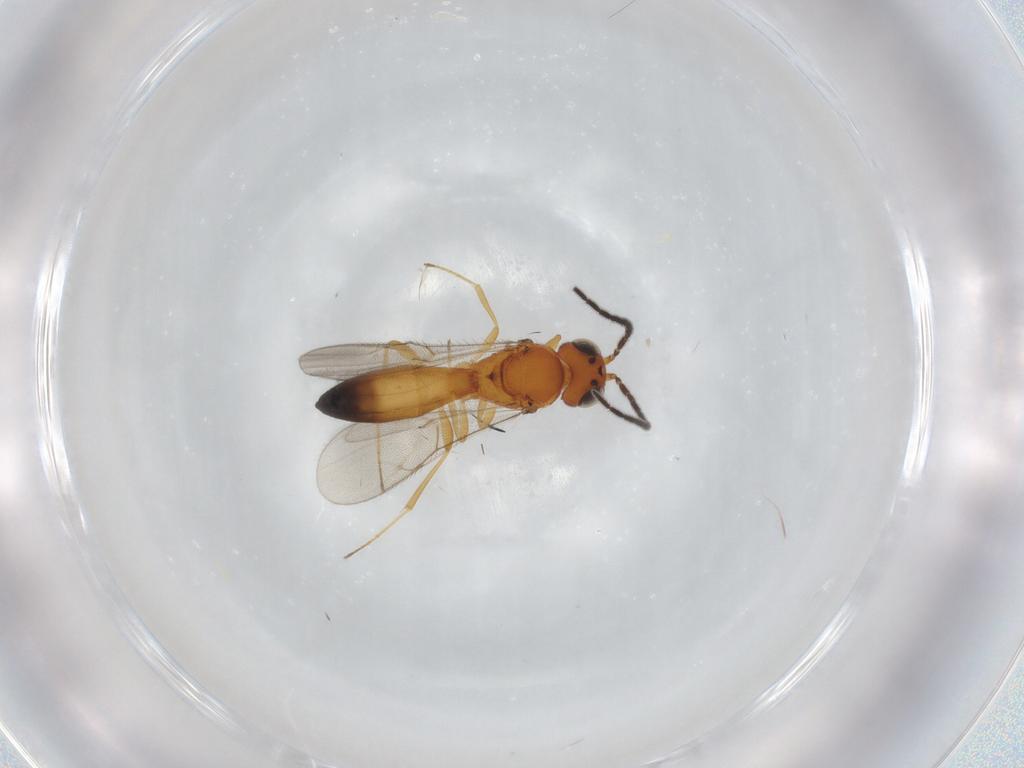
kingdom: Animalia
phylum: Arthropoda
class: Insecta
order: Hymenoptera
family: Scelionidae
